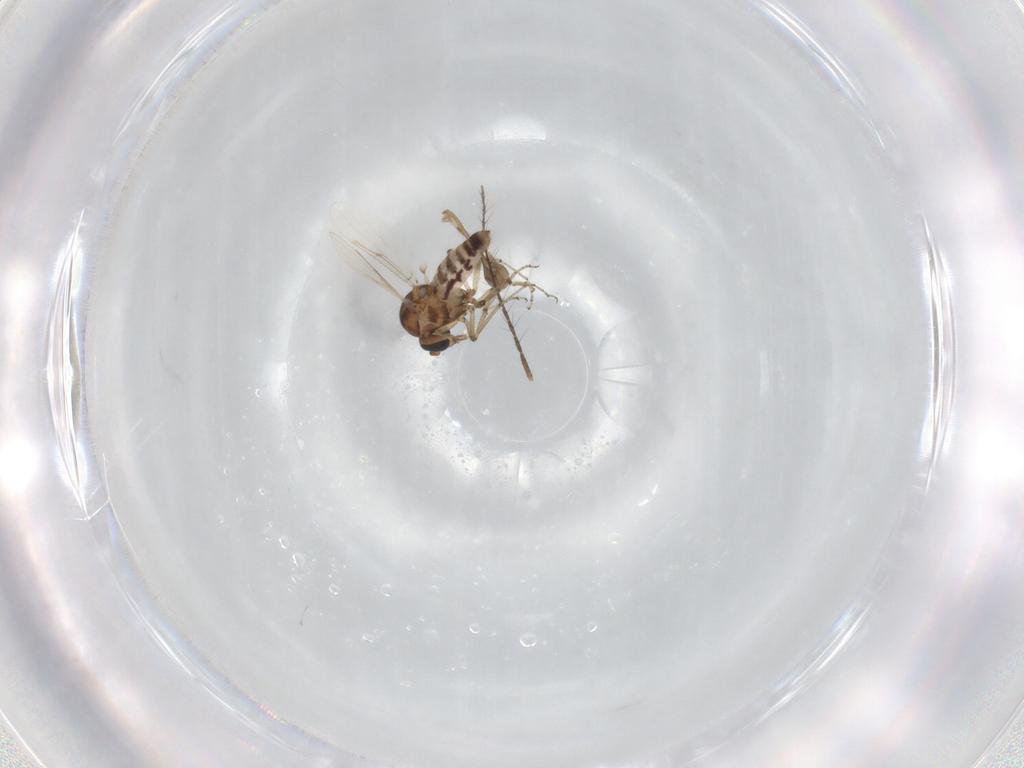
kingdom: Animalia
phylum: Arthropoda
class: Insecta
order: Diptera
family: Ceratopogonidae
